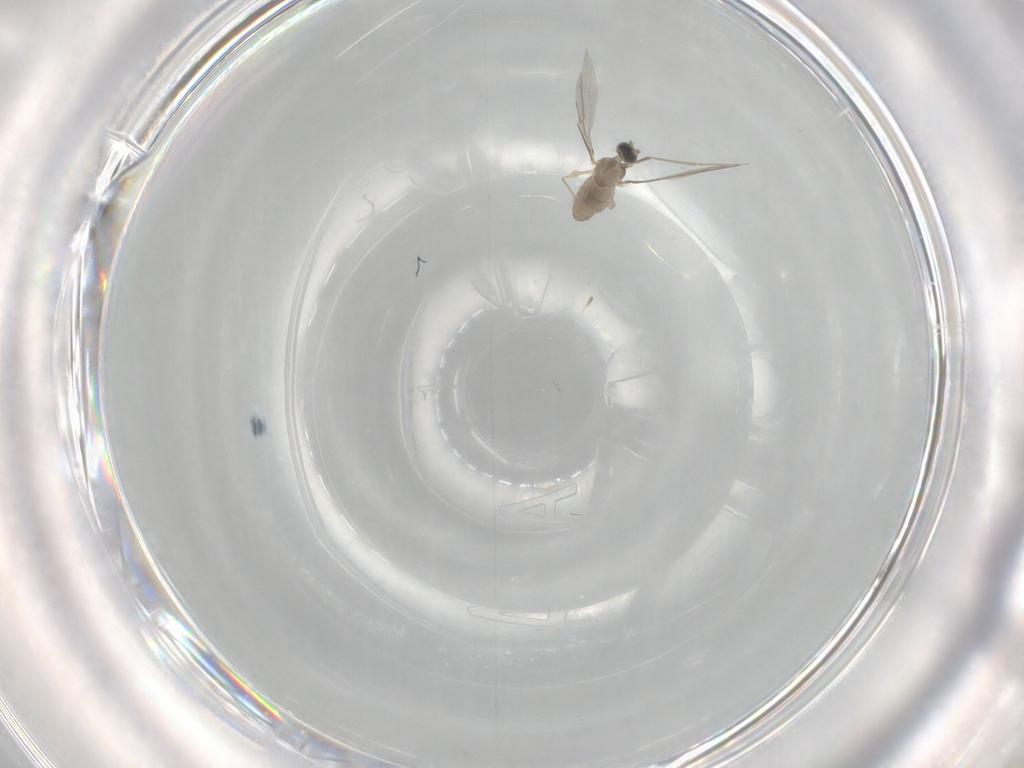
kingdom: Animalia
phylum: Arthropoda
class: Insecta
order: Diptera
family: Cecidomyiidae
